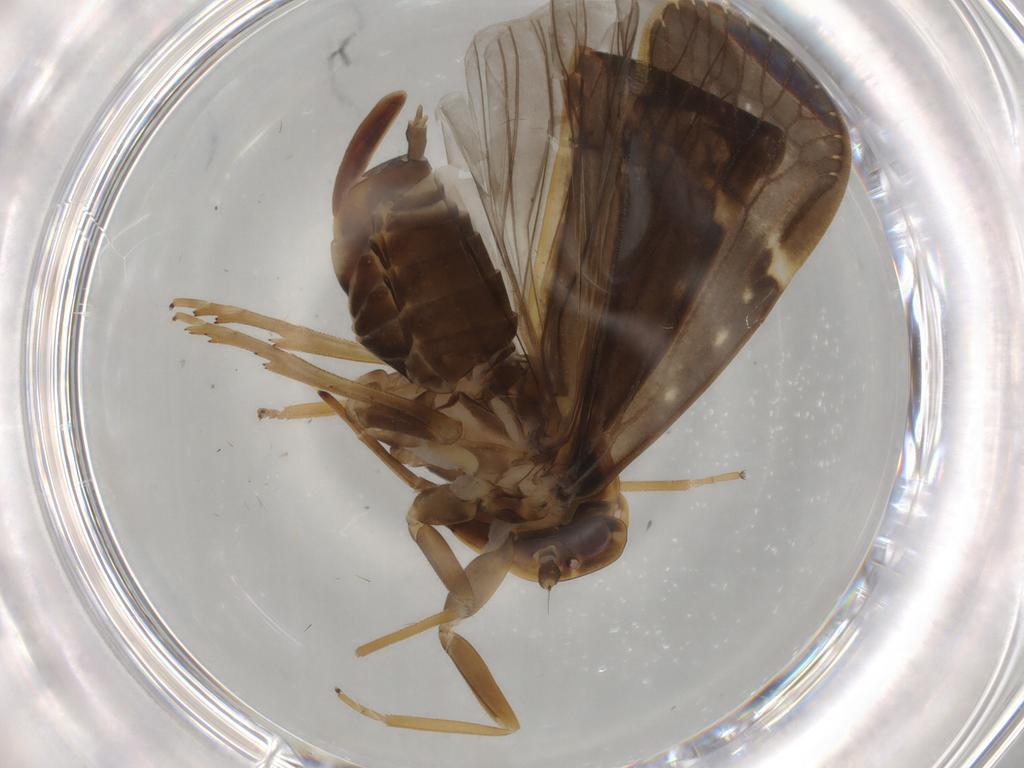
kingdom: Animalia
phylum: Arthropoda
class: Insecta
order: Hemiptera
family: Cixiidae
